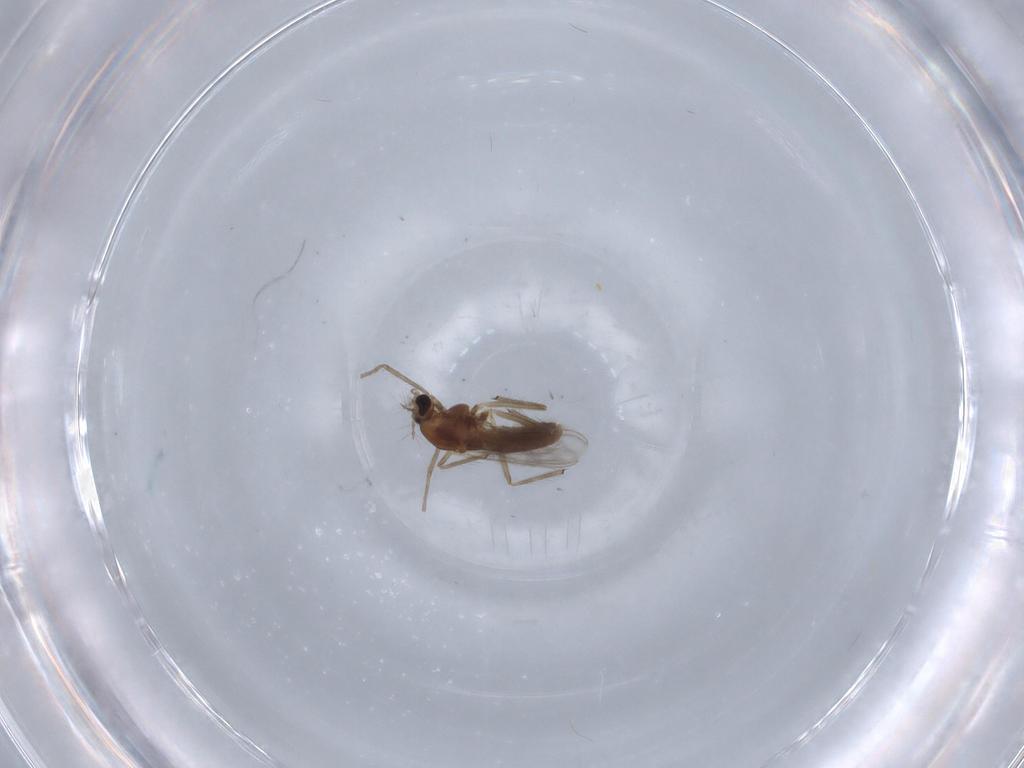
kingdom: Animalia
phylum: Arthropoda
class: Insecta
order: Diptera
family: Chironomidae
